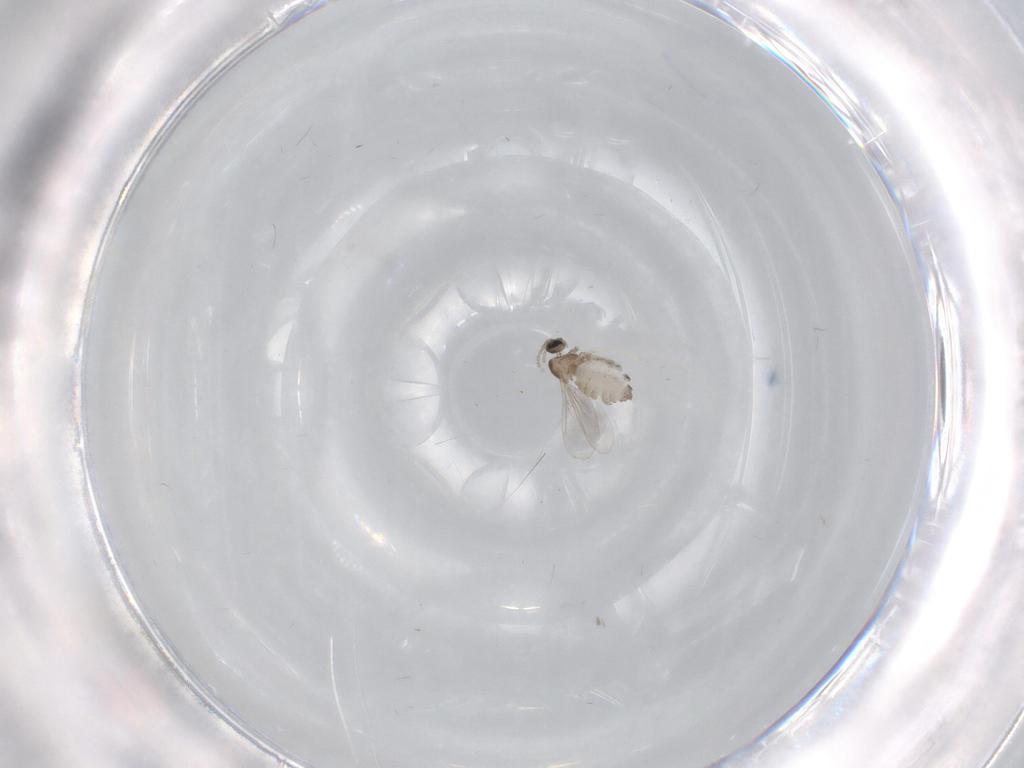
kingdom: Animalia
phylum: Arthropoda
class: Insecta
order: Diptera
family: Cecidomyiidae
